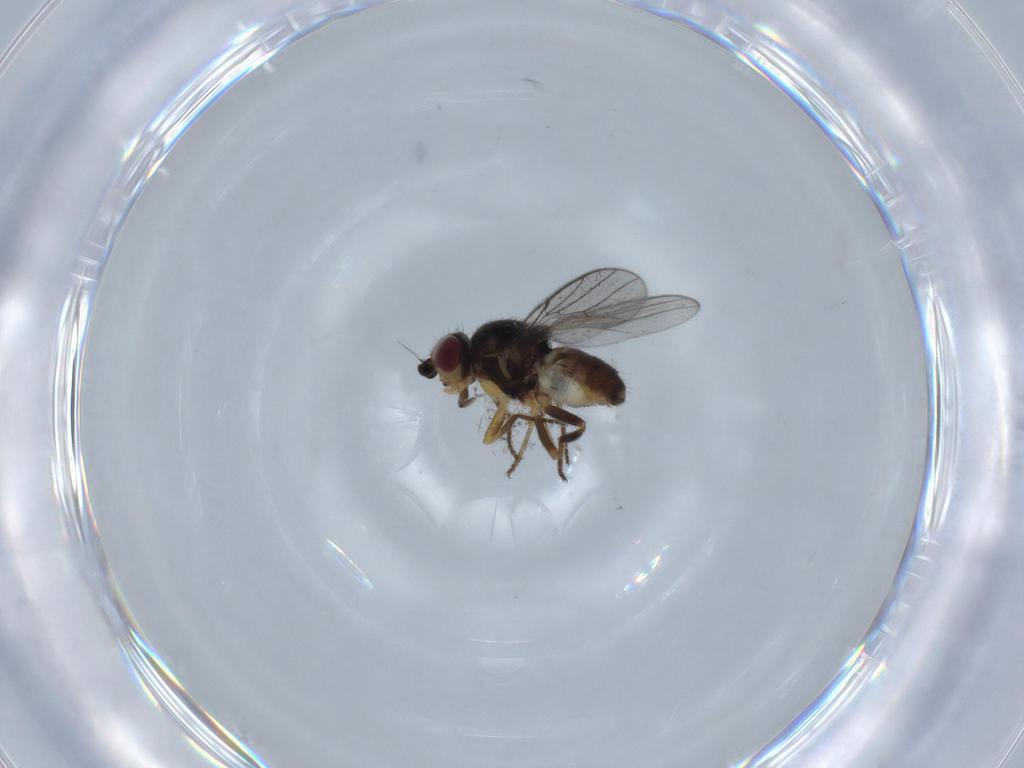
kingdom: Animalia
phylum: Arthropoda
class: Insecta
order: Diptera
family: Chloropidae
